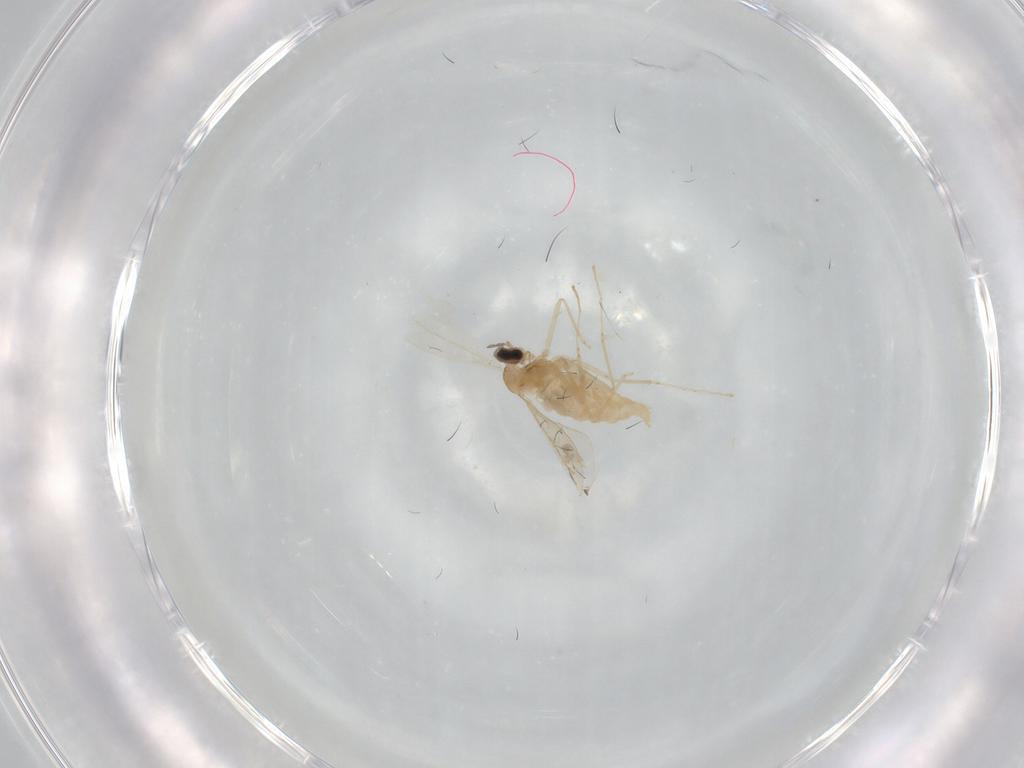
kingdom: Animalia
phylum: Arthropoda
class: Insecta
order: Diptera
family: Cecidomyiidae
